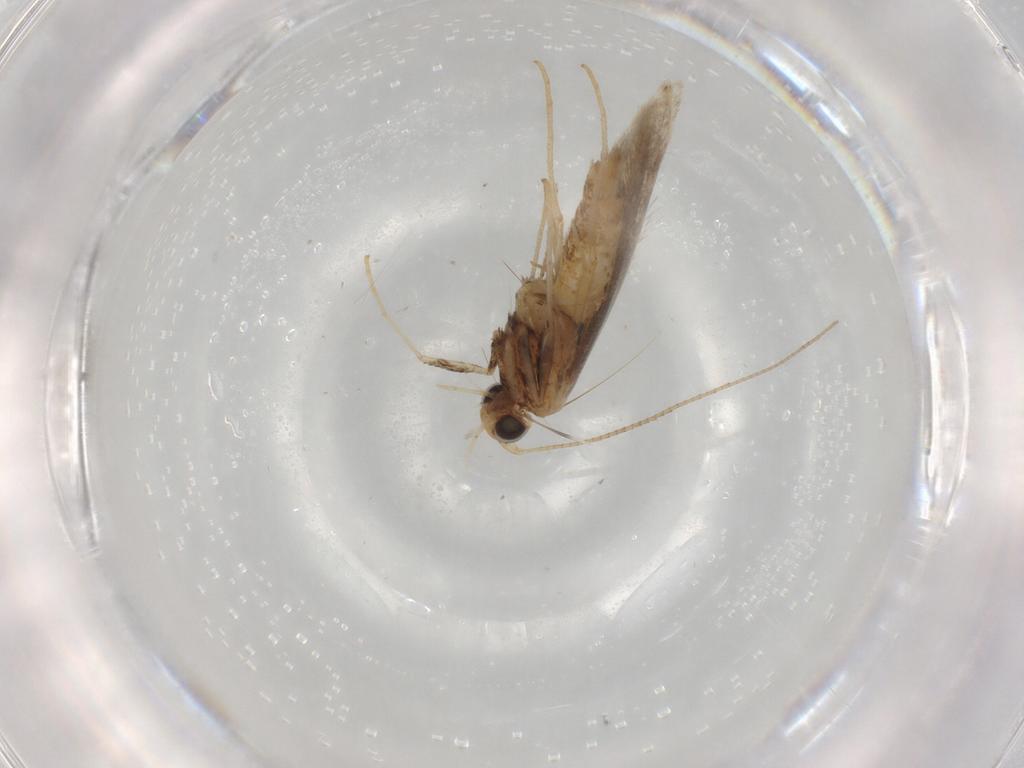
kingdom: Animalia
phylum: Arthropoda
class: Insecta
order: Lepidoptera
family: Gracillariidae
